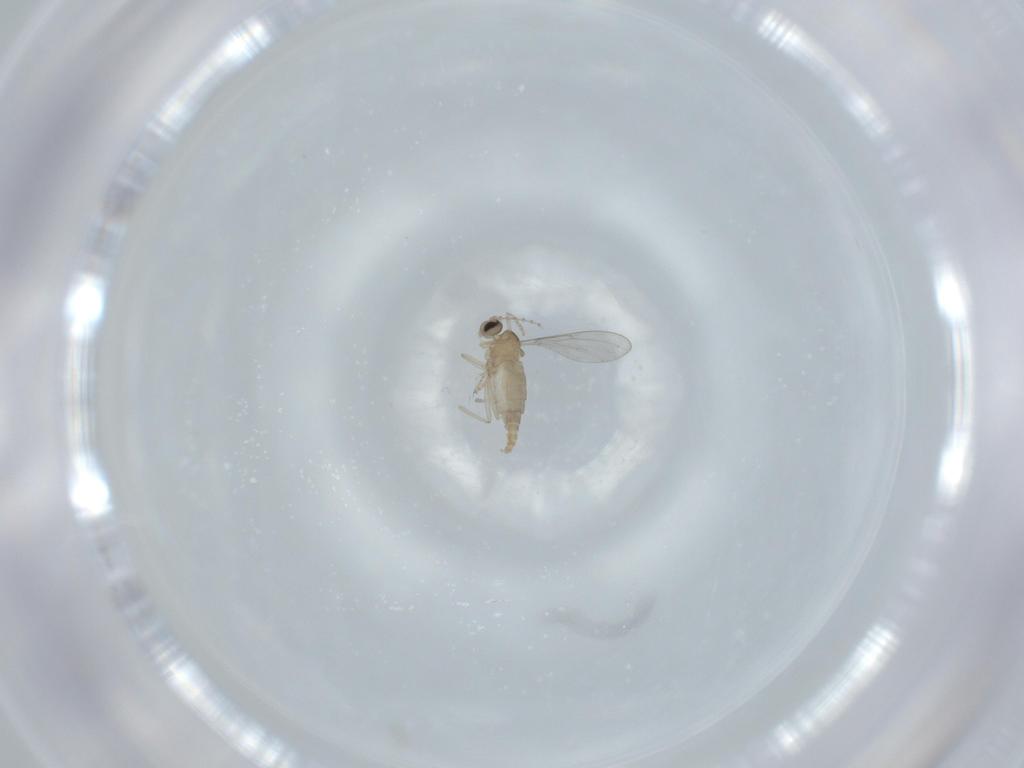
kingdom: Animalia
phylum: Arthropoda
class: Insecta
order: Diptera
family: Cecidomyiidae
